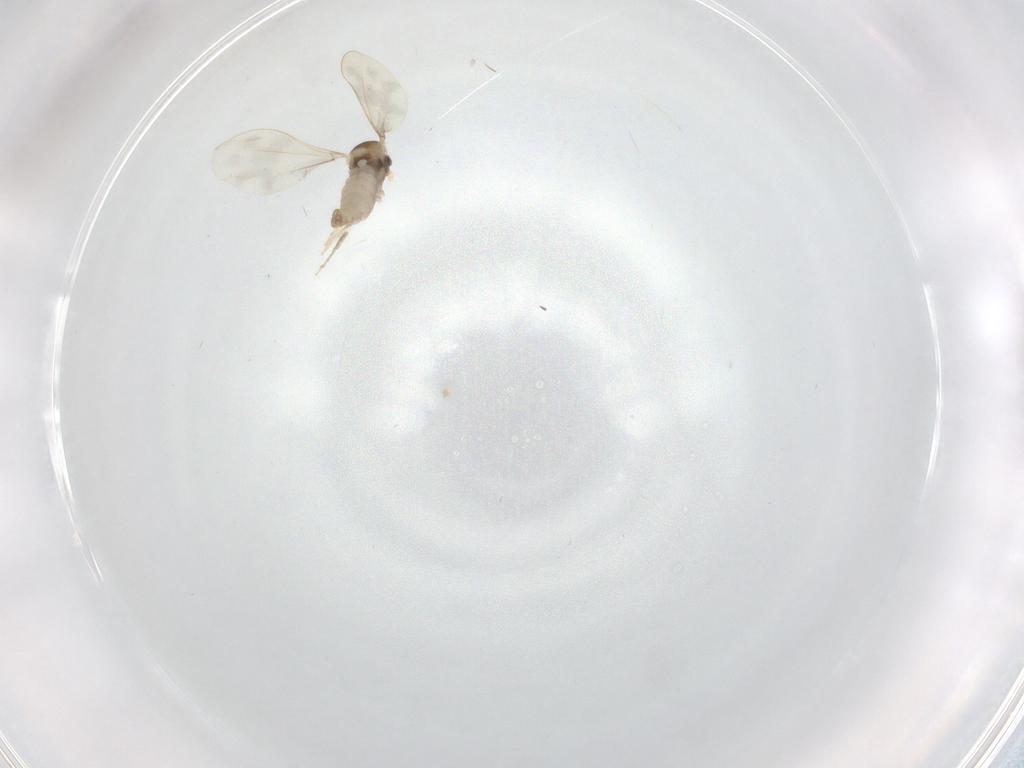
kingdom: Animalia
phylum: Arthropoda
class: Insecta
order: Diptera
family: Cecidomyiidae
